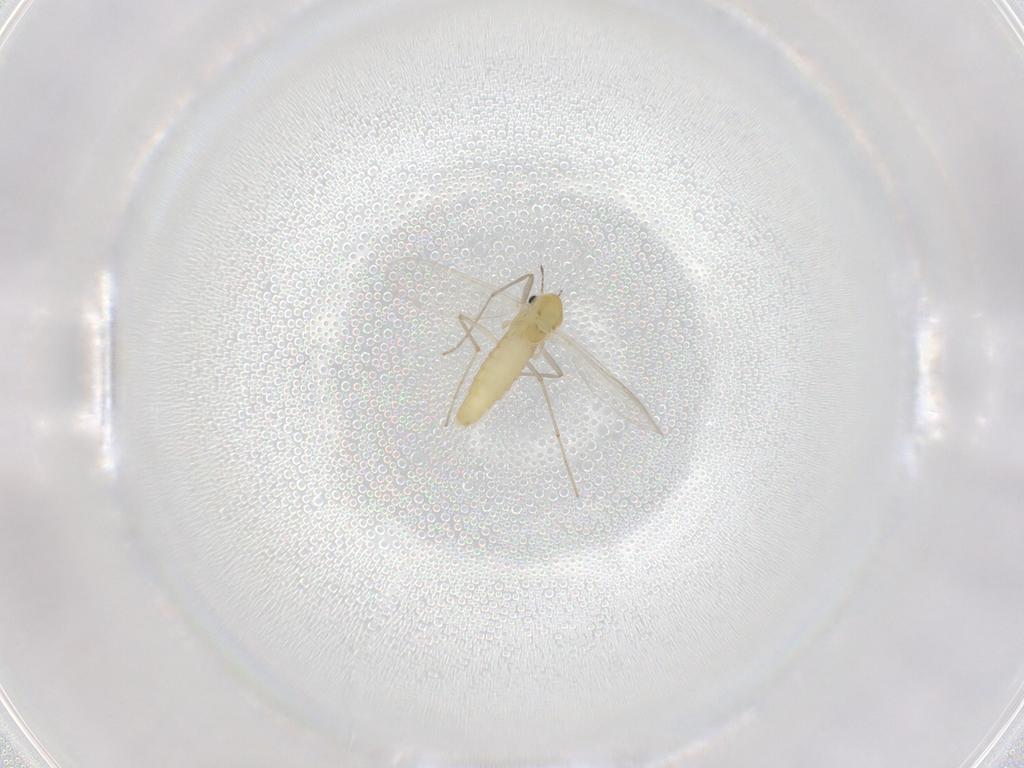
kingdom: Animalia
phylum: Arthropoda
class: Insecta
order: Diptera
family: Chironomidae
